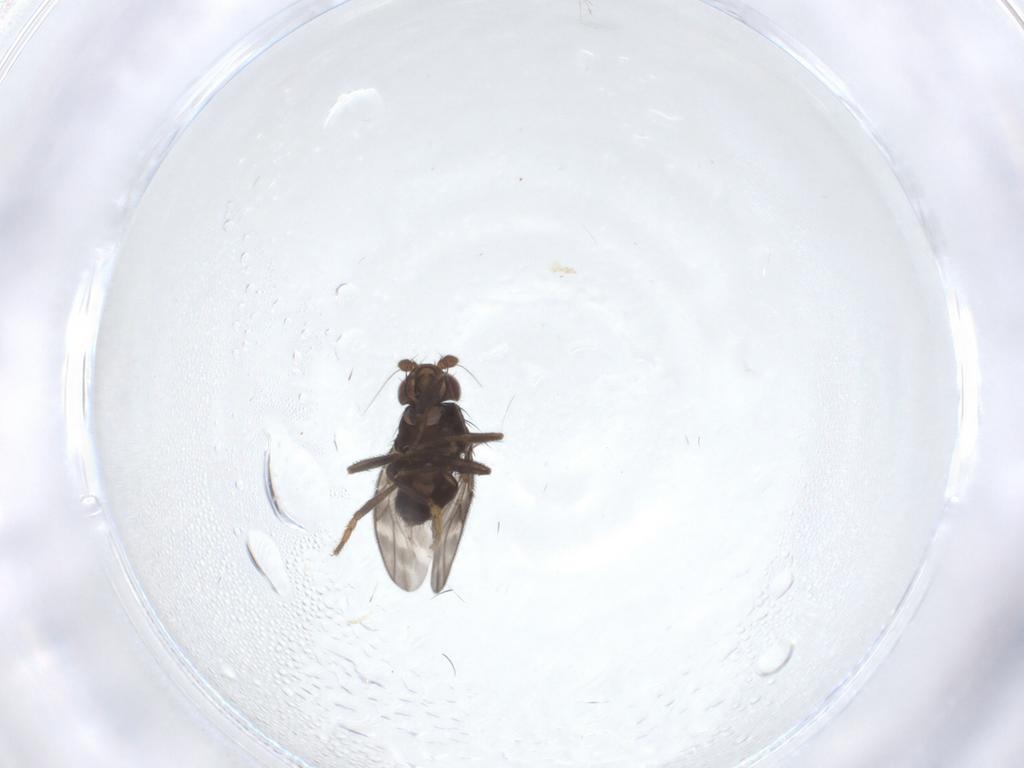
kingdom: Animalia
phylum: Arthropoda
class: Insecta
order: Diptera
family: Sphaeroceridae
